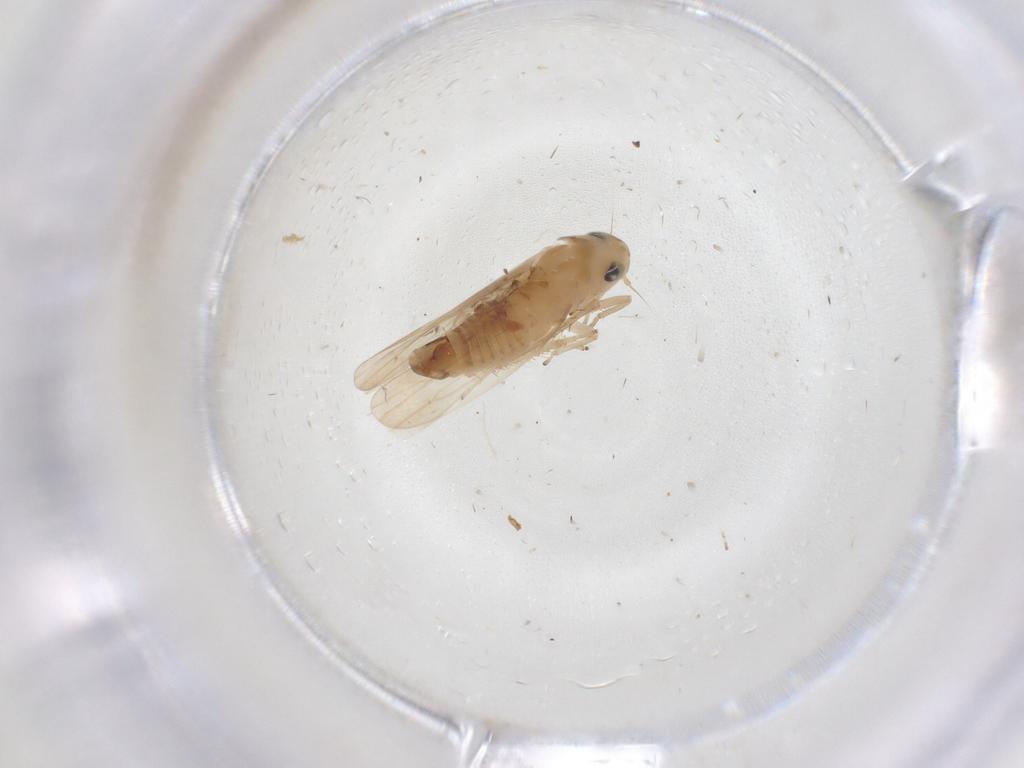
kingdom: Animalia
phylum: Arthropoda
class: Insecta
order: Hemiptera
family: Cicadellidae
